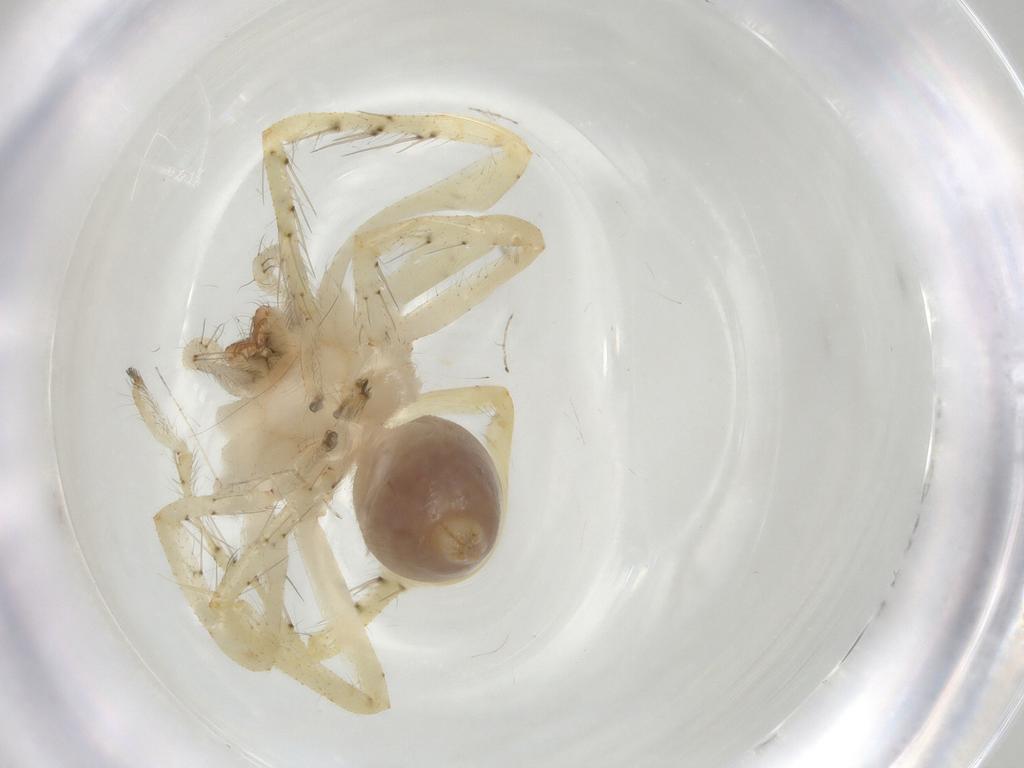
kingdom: Animalia
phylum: Arthropoda
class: Arachnida
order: Araneae
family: Sparassidae
